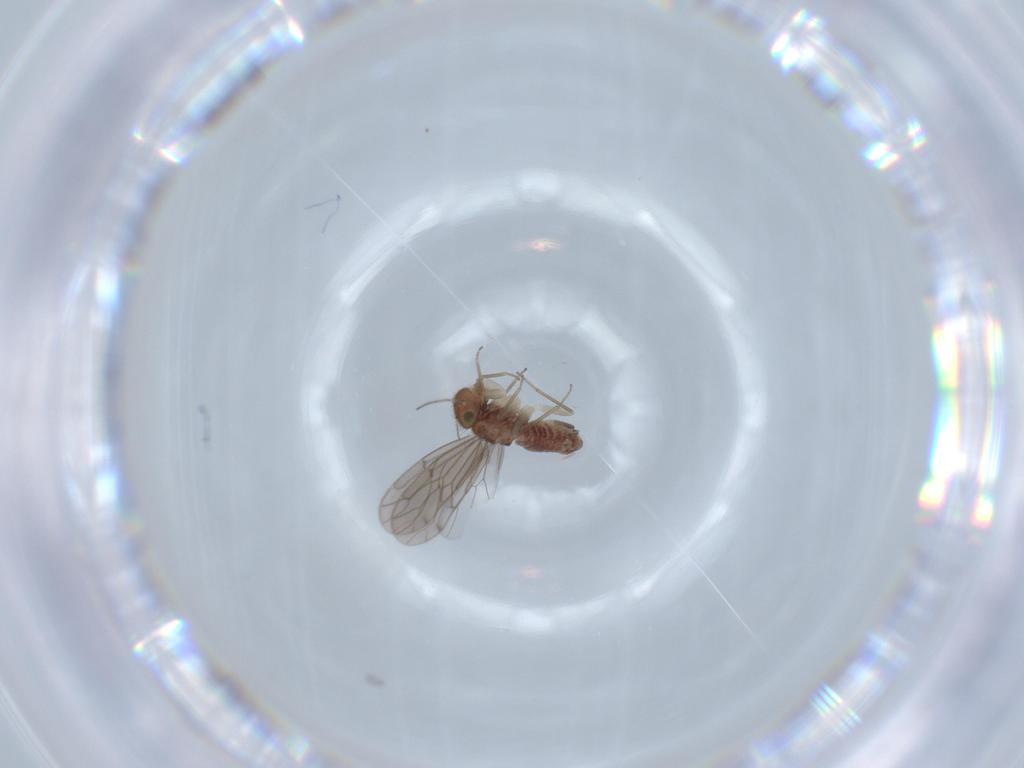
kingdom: Animalia
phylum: Arthropoda
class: Insecta
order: Psocodea
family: Ectopsocidae
